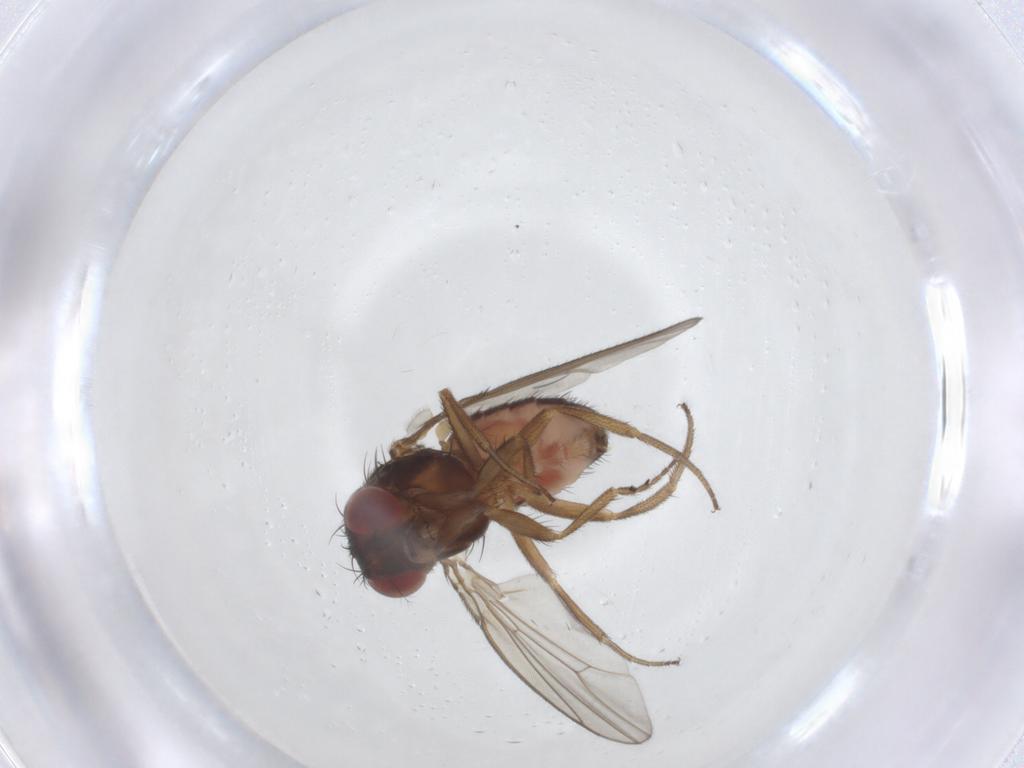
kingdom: Animalia
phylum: Arthropoda
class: Insecta
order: Diptera
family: Drosophilidae
